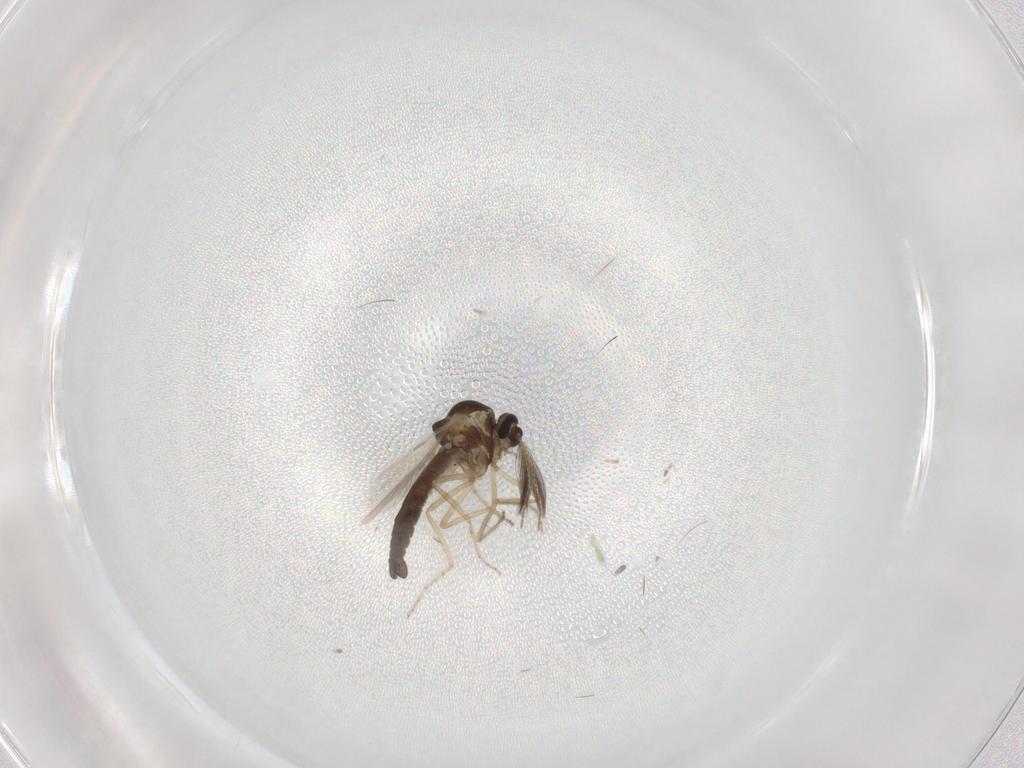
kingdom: Animalia
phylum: Arthropoda
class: Insecta
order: Diptera
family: Ceratopogonidae
